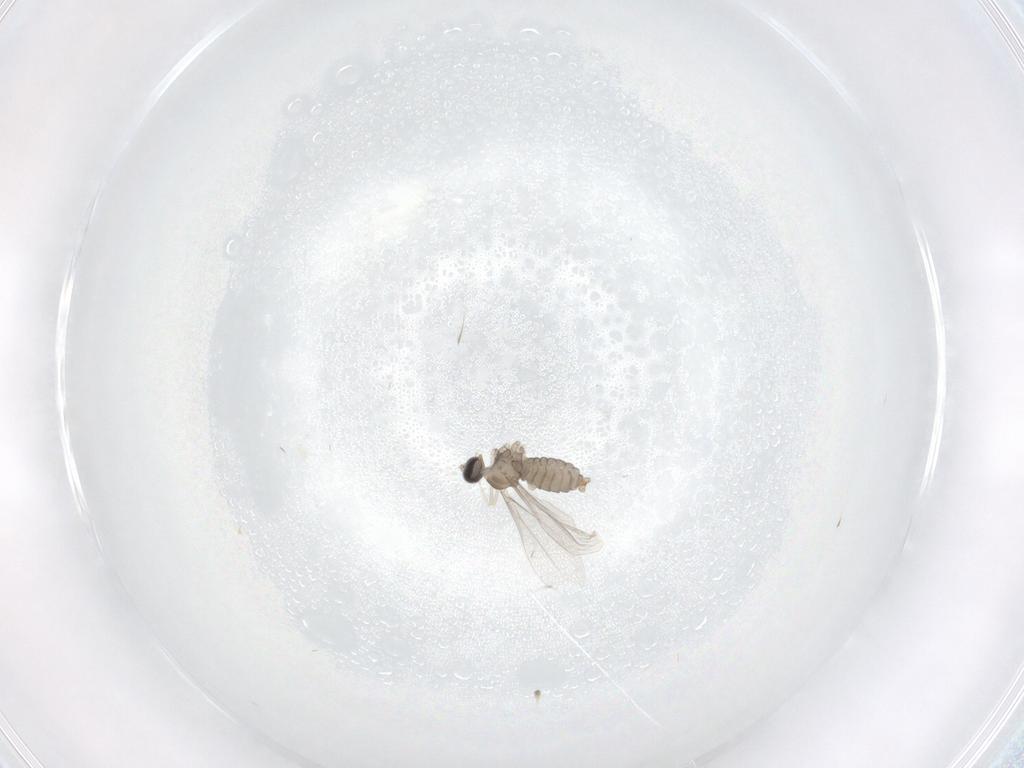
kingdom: Animalia
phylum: Arthropoda
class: Insecta
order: Diptera
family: Cecidomyiidae
